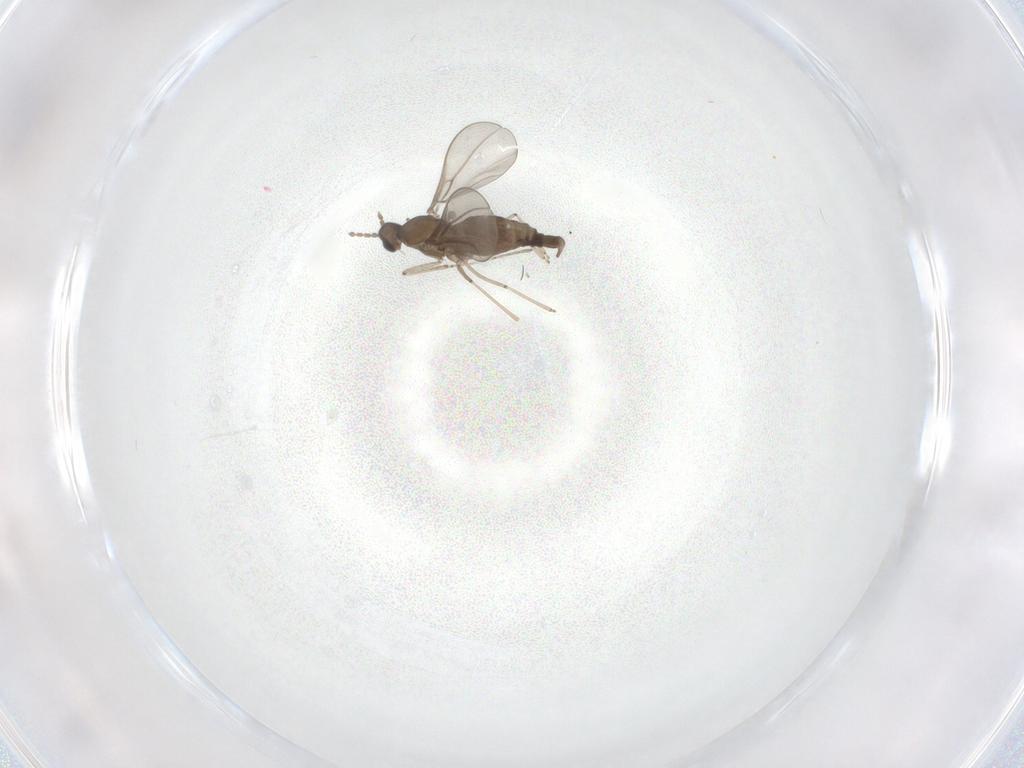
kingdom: Animalia
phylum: Arthropoda
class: Insecta
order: Diptera
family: Cecidomyiidae
